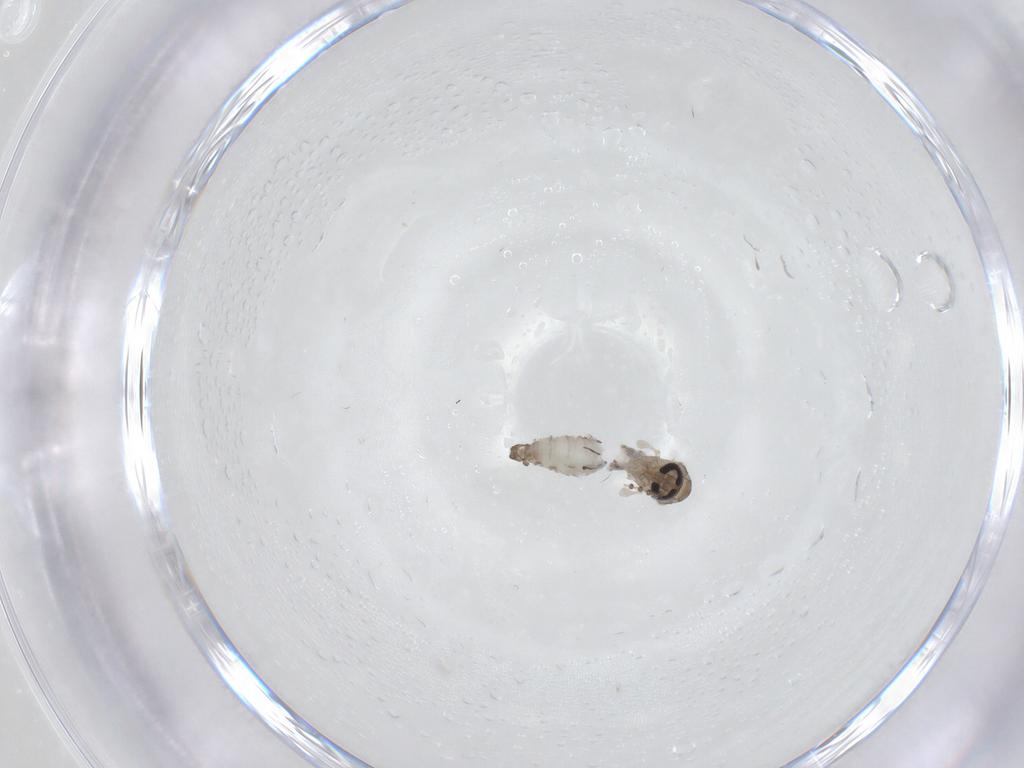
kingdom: Animalia
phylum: Arthropoda
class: Insecta
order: Diptera
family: Psychodidae
